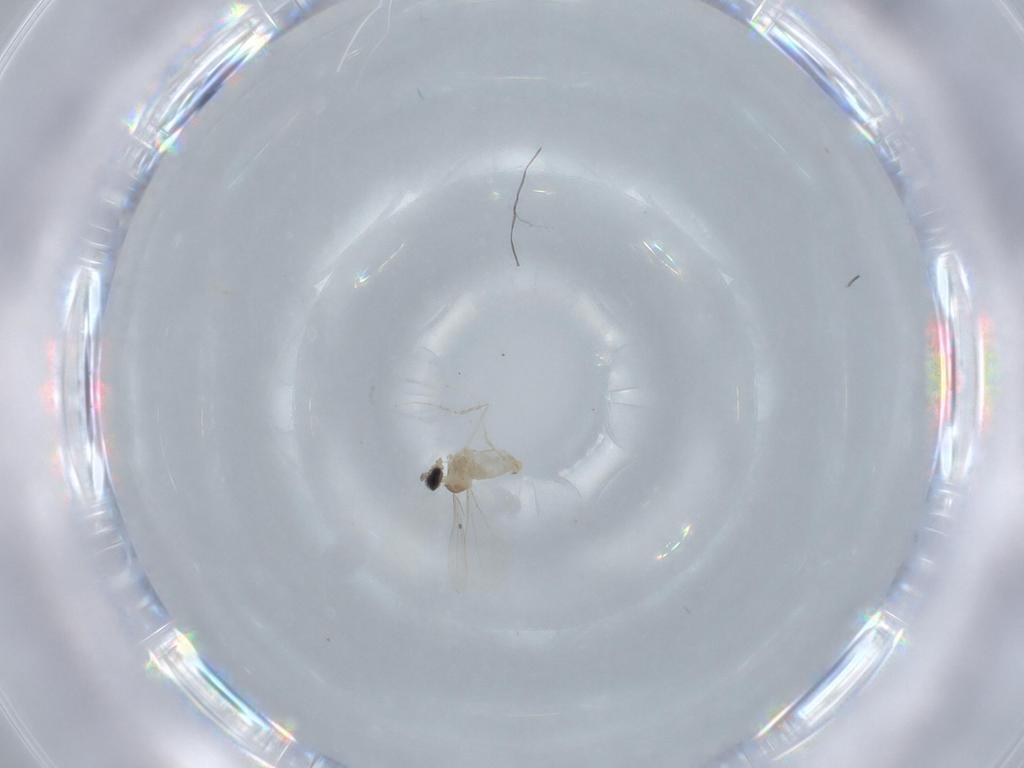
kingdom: Animalia
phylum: Arthropoda
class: Insecta
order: Diptera
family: Cecidomyiidae
